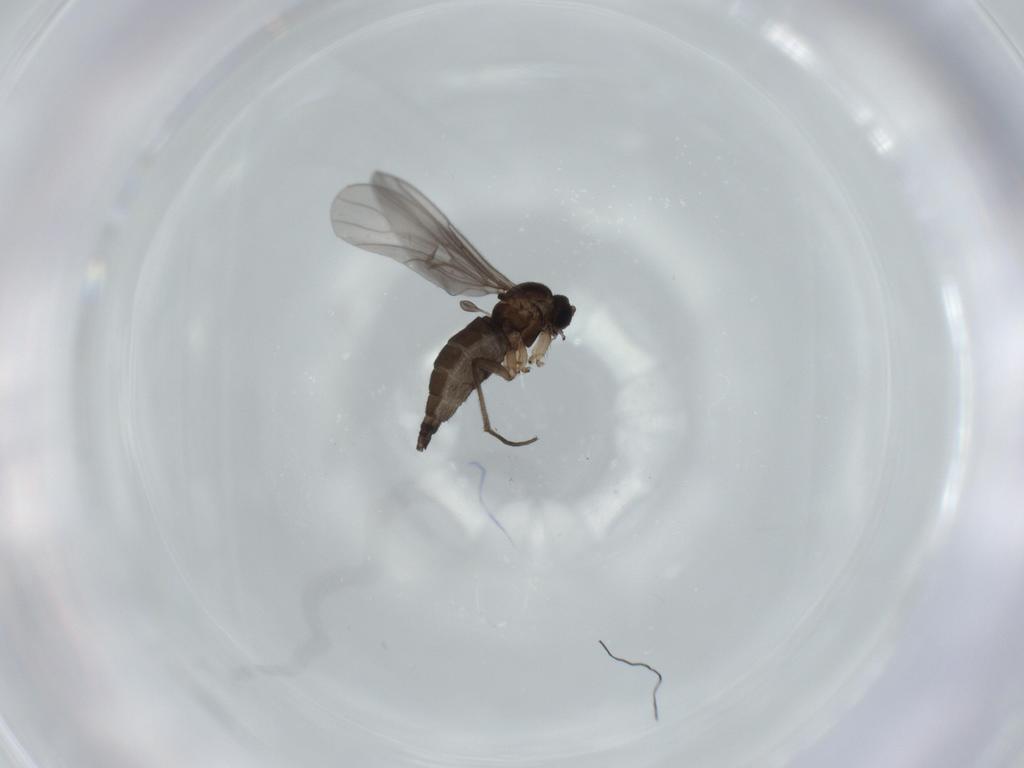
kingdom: Animalia
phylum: Arthropoda
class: Insecta
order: Diptera
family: Sciaridae
